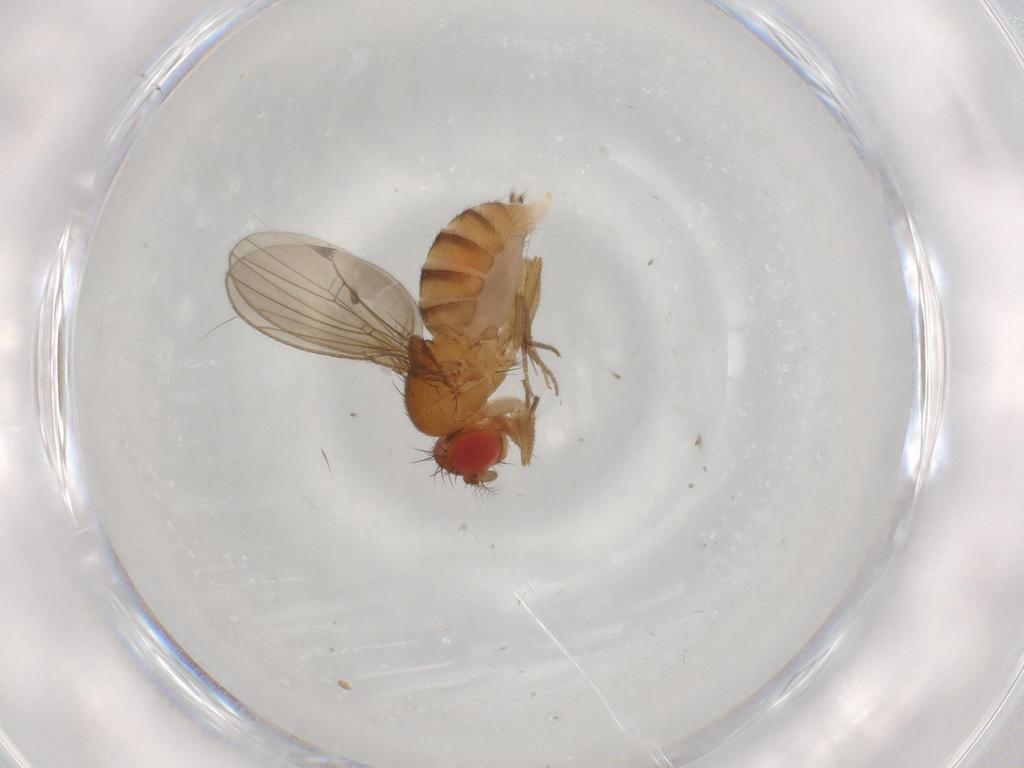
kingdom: Animalia
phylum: Arthropoda
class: Insecta
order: Diptera
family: Drosophilidae
